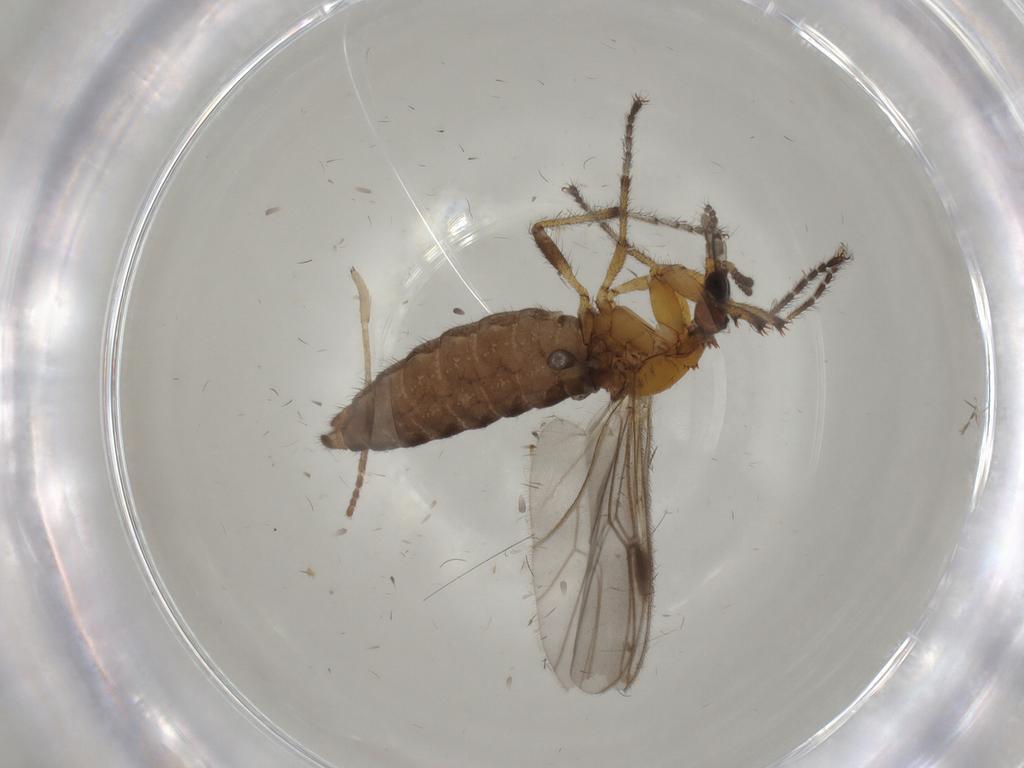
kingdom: Animalia
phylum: Arthropoda
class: Insecta
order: Diptera
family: Bibionidae
